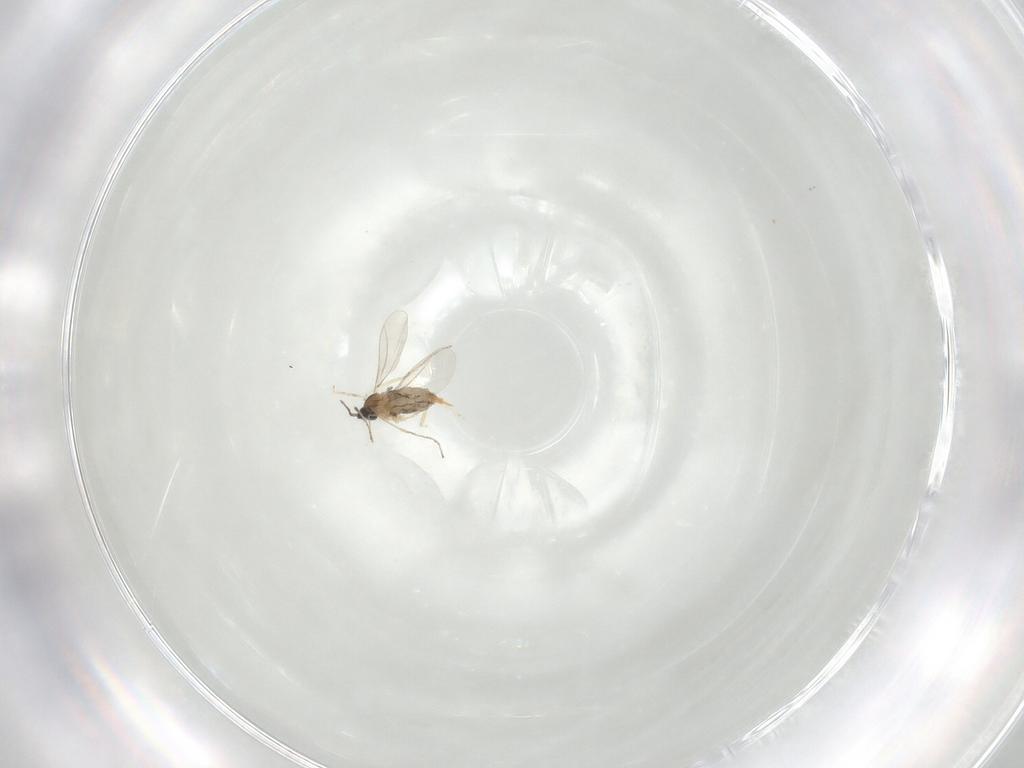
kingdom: Animalia
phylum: Arthropoda
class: Insecta
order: Diptera
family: Cecidomyiidae
